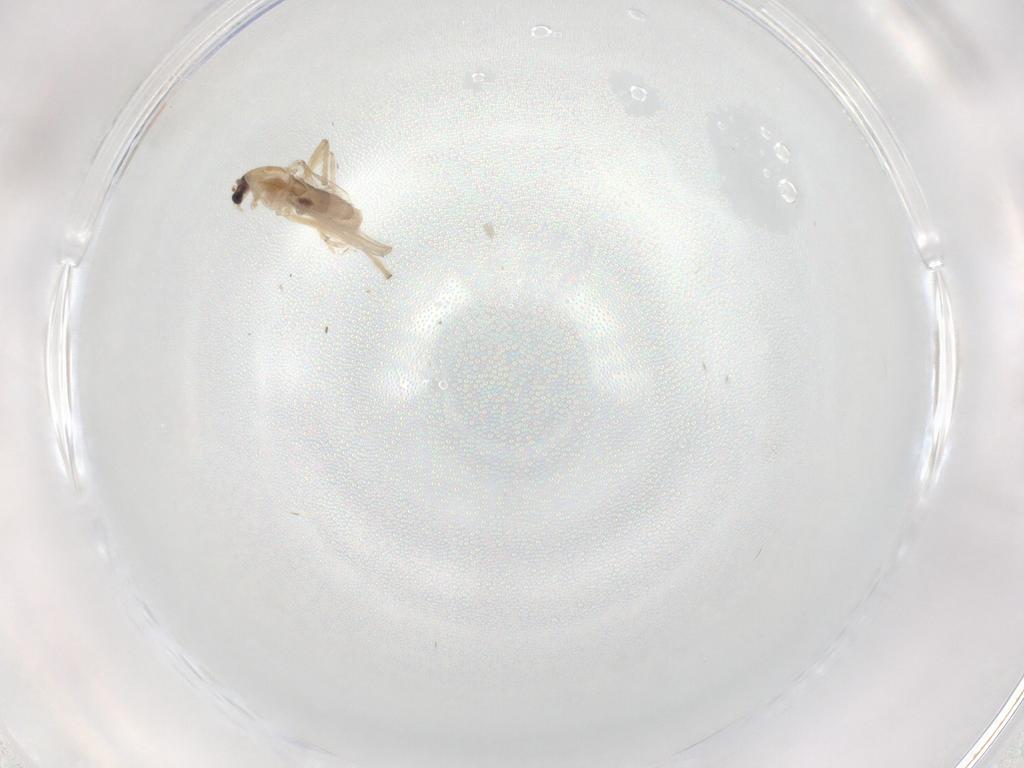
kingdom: Animalia
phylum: Arthropoda
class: Insecta
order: Diptera
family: Chironomidae
